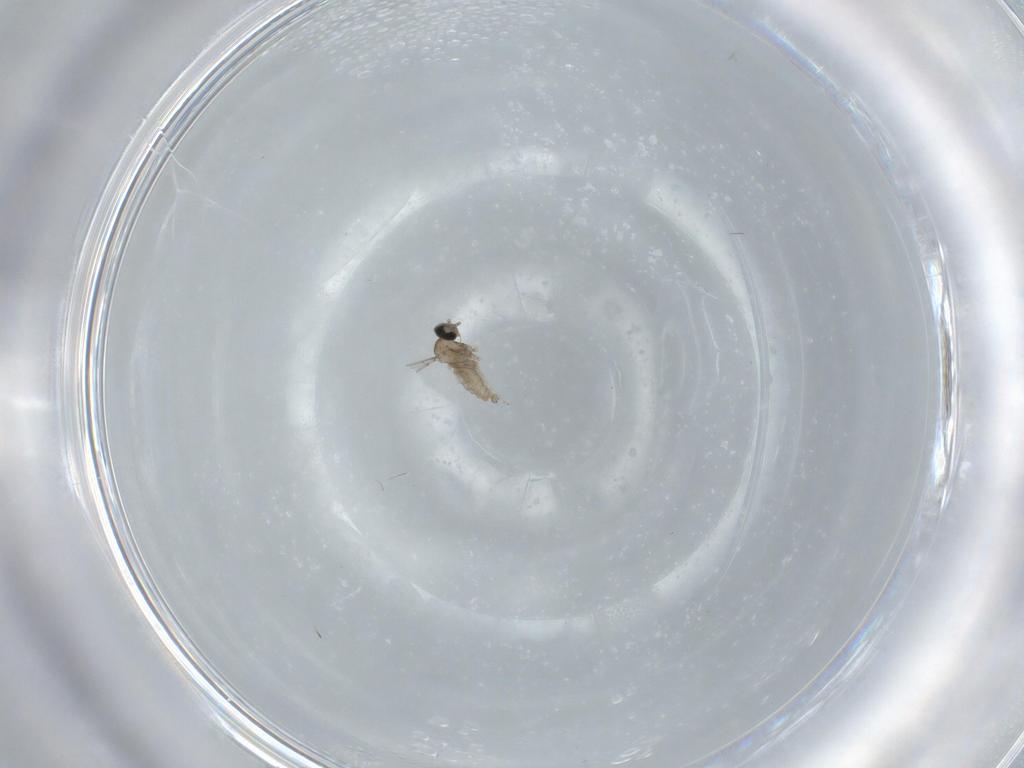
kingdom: Animalia
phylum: Arthropoda
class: Insecta
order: Diptera
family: Cecidomyiidae
